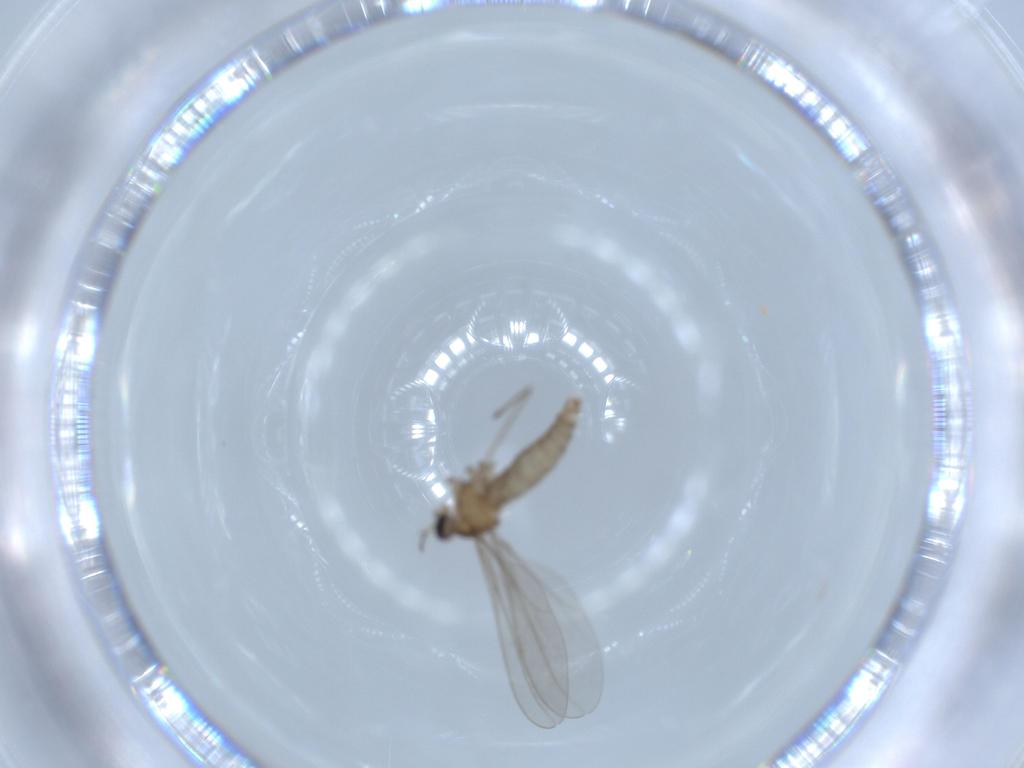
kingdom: Animalia
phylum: Arthropoda
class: Insecta
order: Diptera
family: Cecidomyiidae
